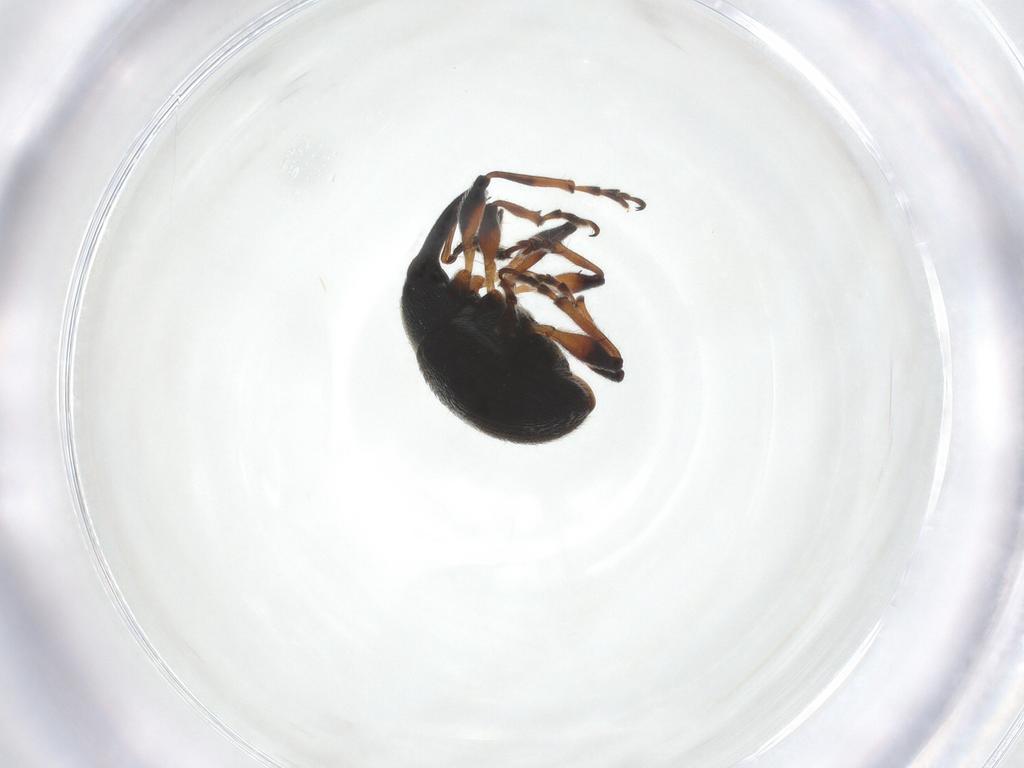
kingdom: Animalia
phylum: Arthropoda
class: Insecta
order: Coleoptera
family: Brentidae
